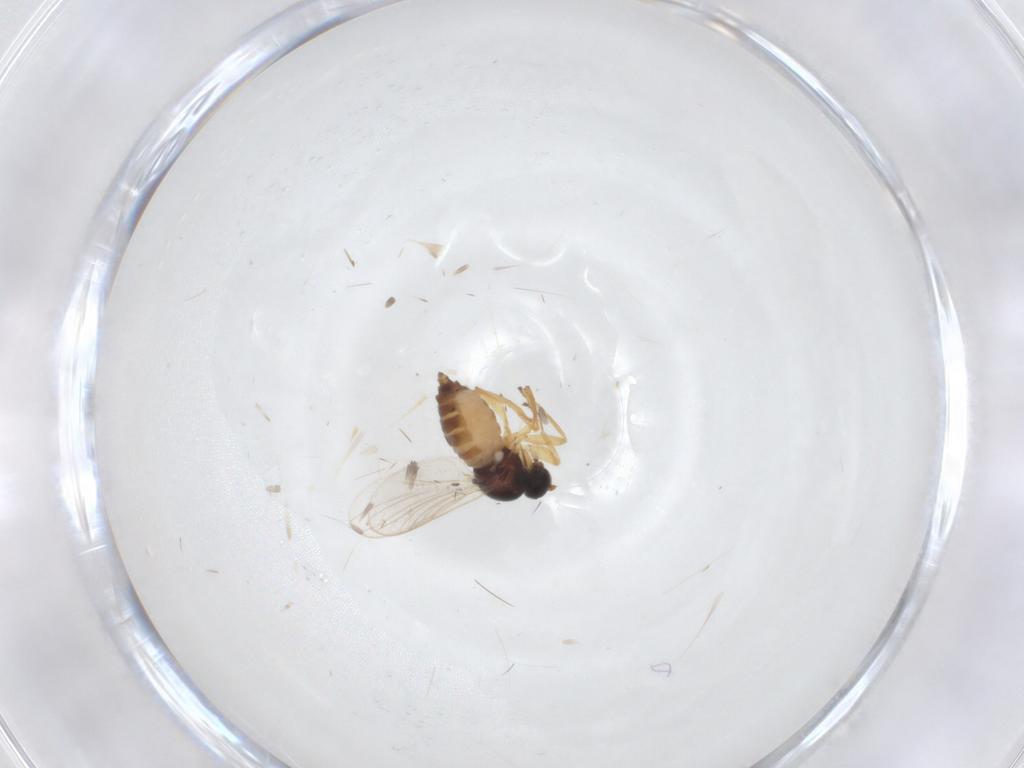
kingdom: Animalia
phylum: Arthropoda
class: Insecta
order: Diptera
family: Hybotidae
